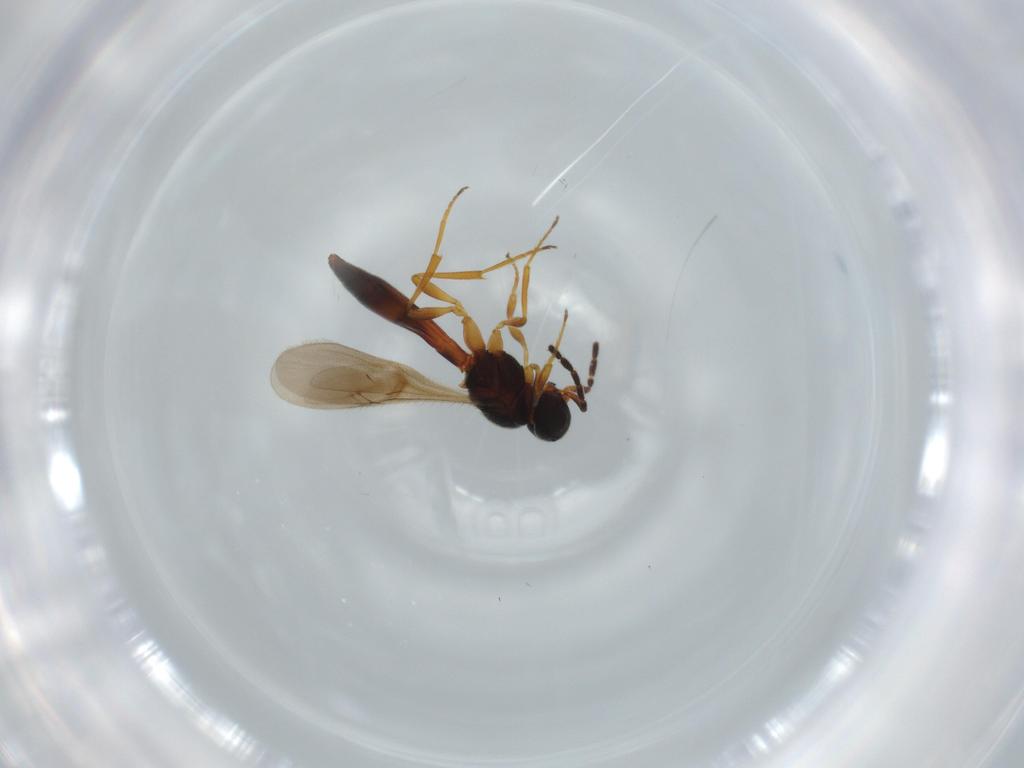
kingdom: Animalia
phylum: Arthropoda
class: Insecta
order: Hymenoptera
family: Scelionidae
